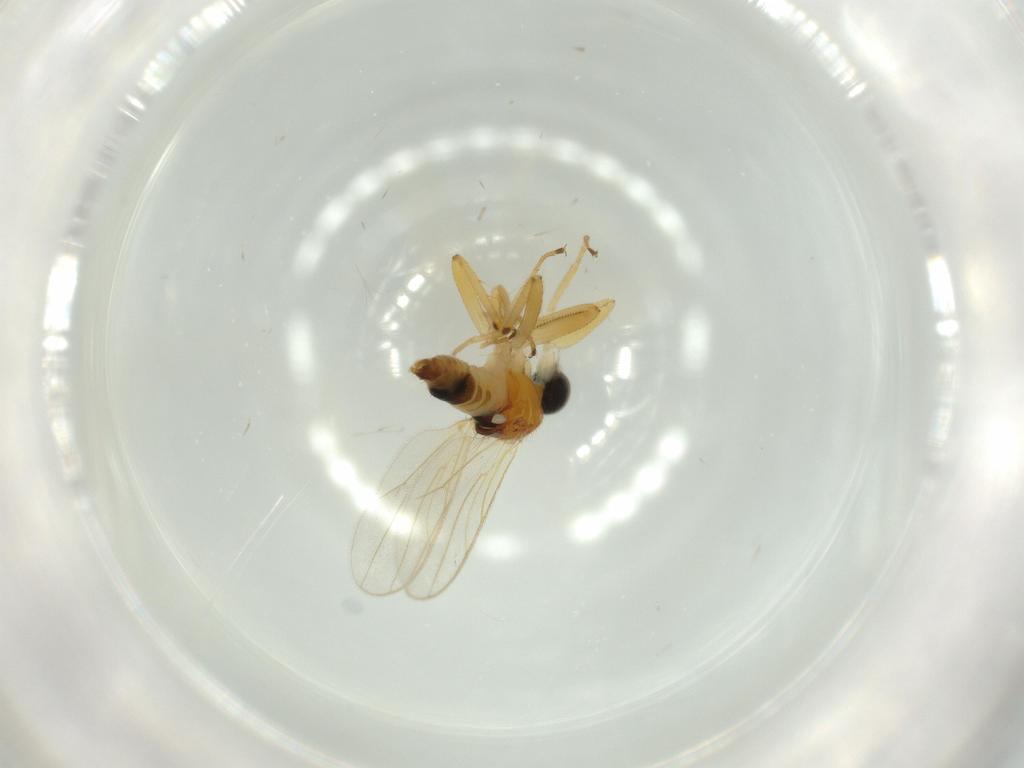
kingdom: Animalia
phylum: Arthropoda
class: Insecta
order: Diptera
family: Hybotidae
